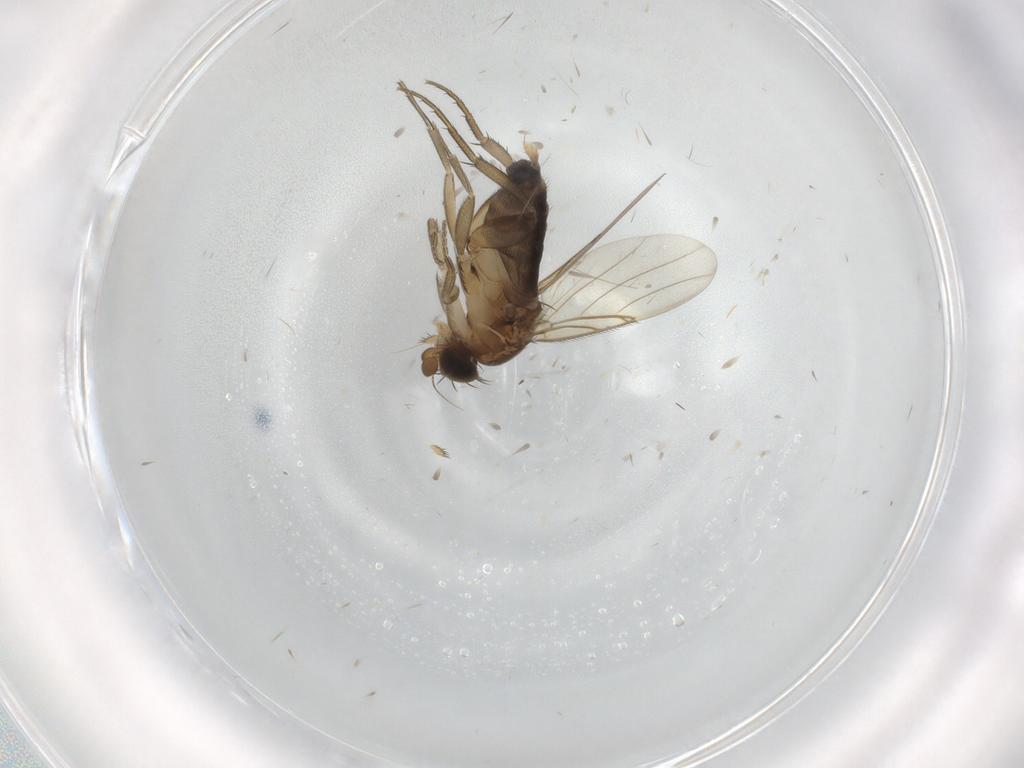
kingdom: Animalia
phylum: Arthropoda
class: Insecta
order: Diptera
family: Phoridae
